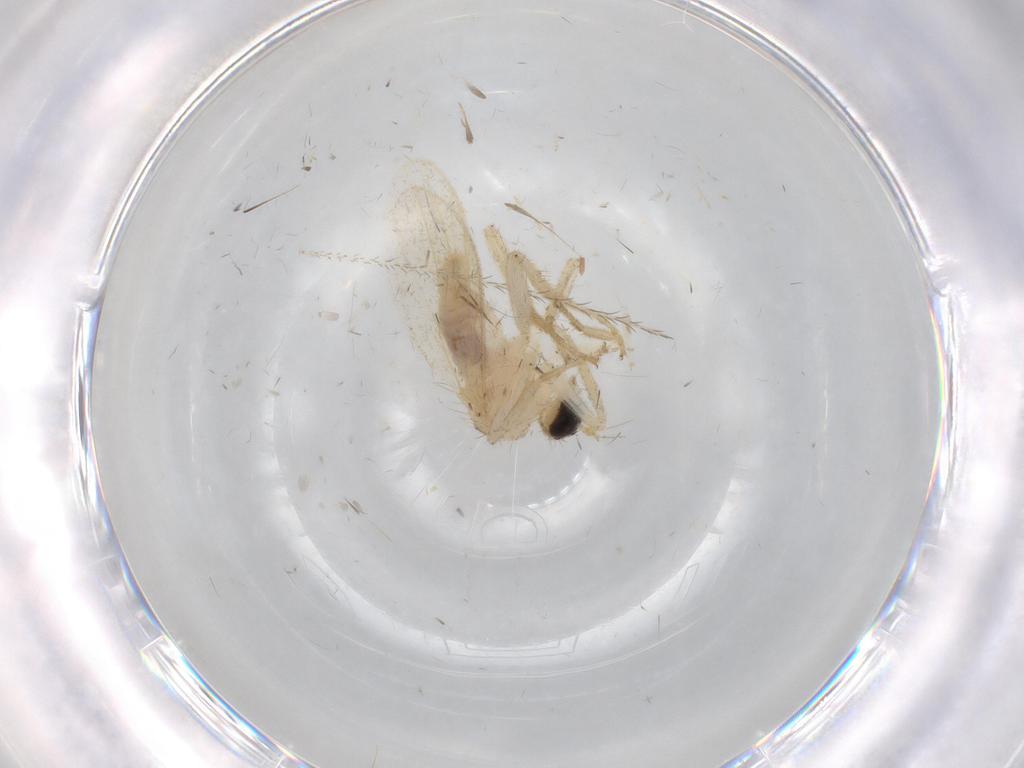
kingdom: Animalia
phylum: Arthropoda
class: Insecta
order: Diptera
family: Hybotidae
